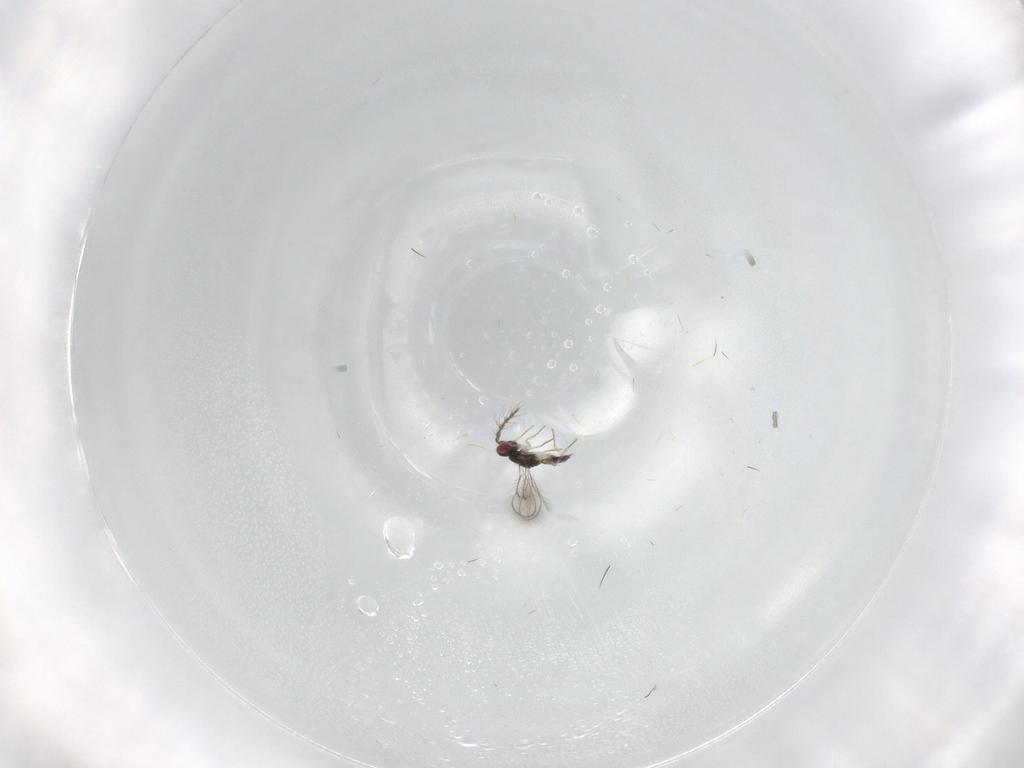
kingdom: Animalia
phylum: Arthropoda
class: Insecta
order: Hymenoptera
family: Eulophidae
